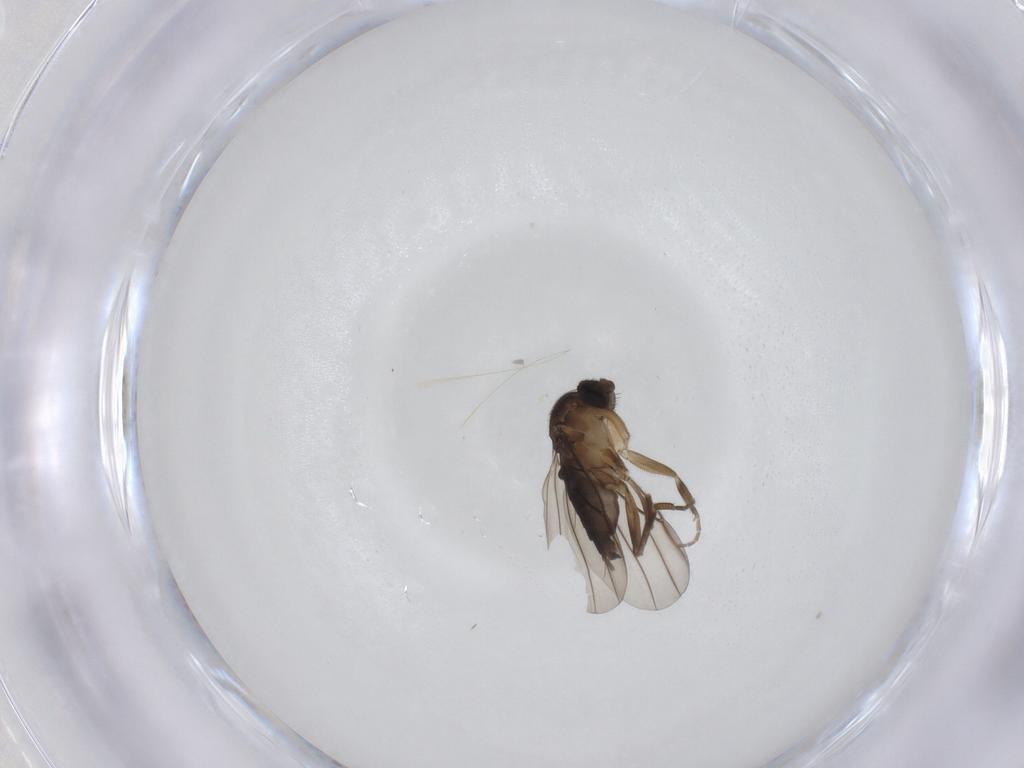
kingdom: Animalia
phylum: Arthropoda
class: Insecta
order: Diptera
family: Phoridae
